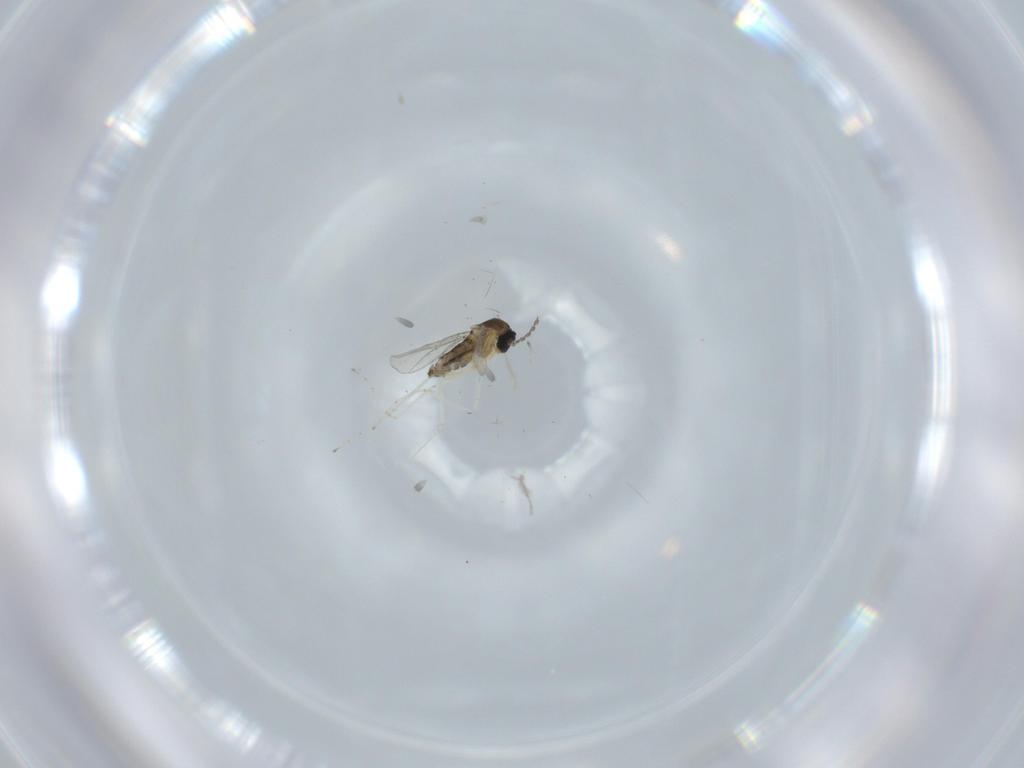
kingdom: Animalia
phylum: Arthropoda
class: Insecta
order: Diptera
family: Cecidomyiidae
